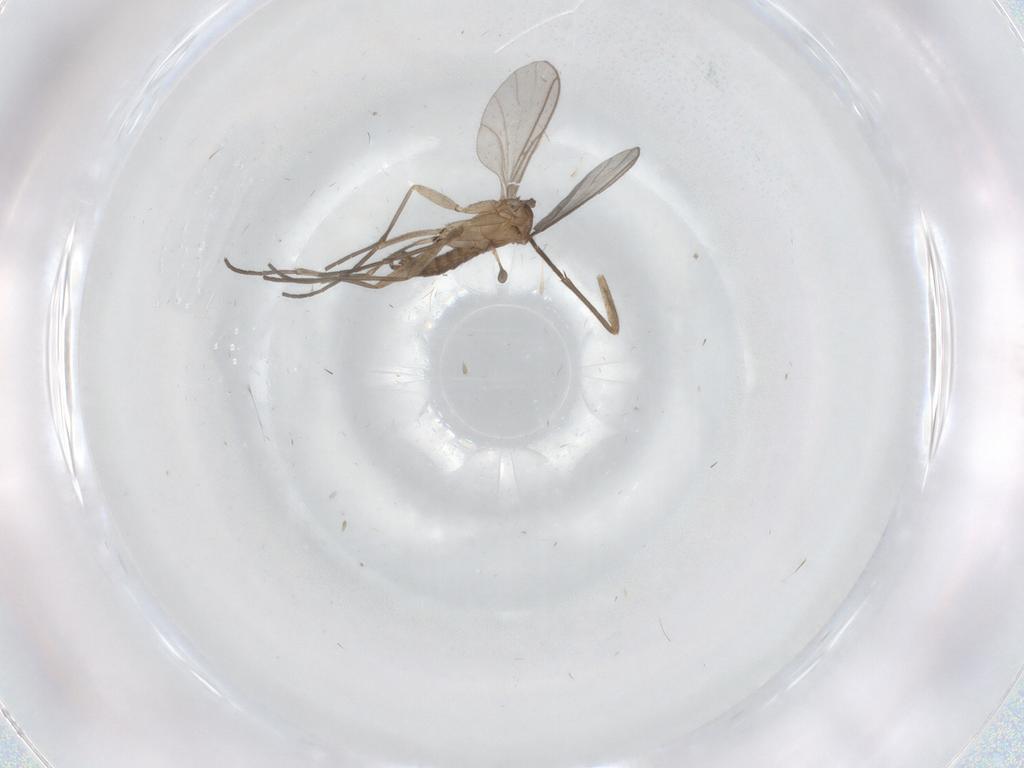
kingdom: Animalia
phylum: Arthropoda
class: Insecta
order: Diptera
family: Sciaridae
